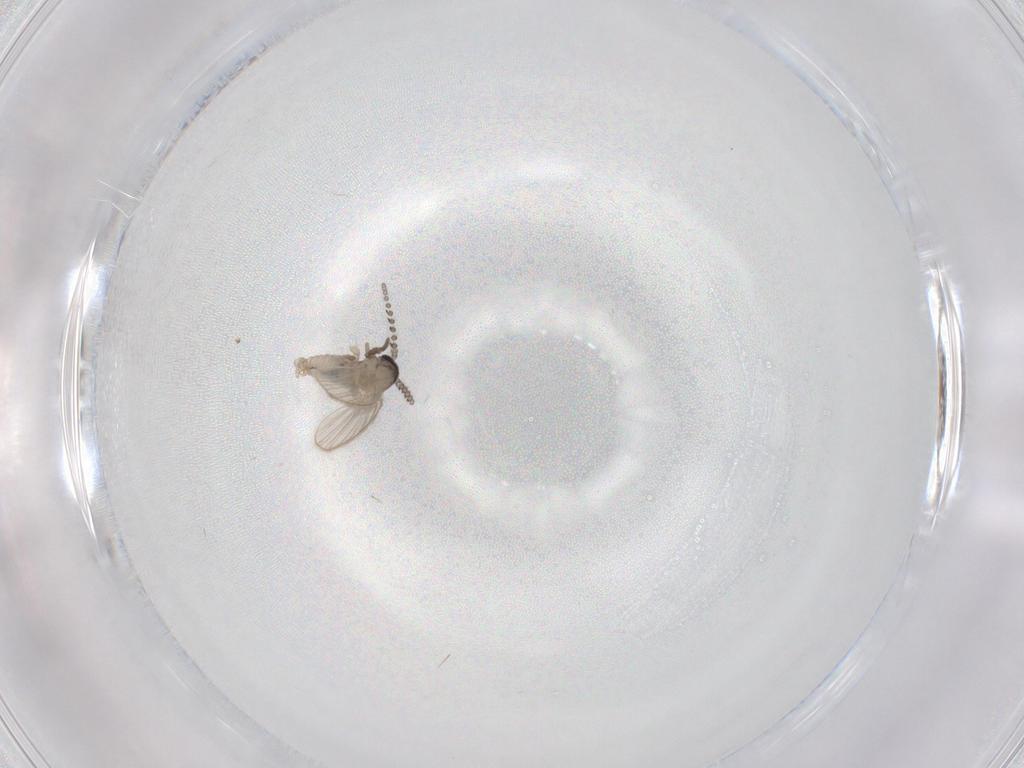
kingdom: Animalia
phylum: Arthropoda
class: Insecta
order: Diptera
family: Psychodidae
